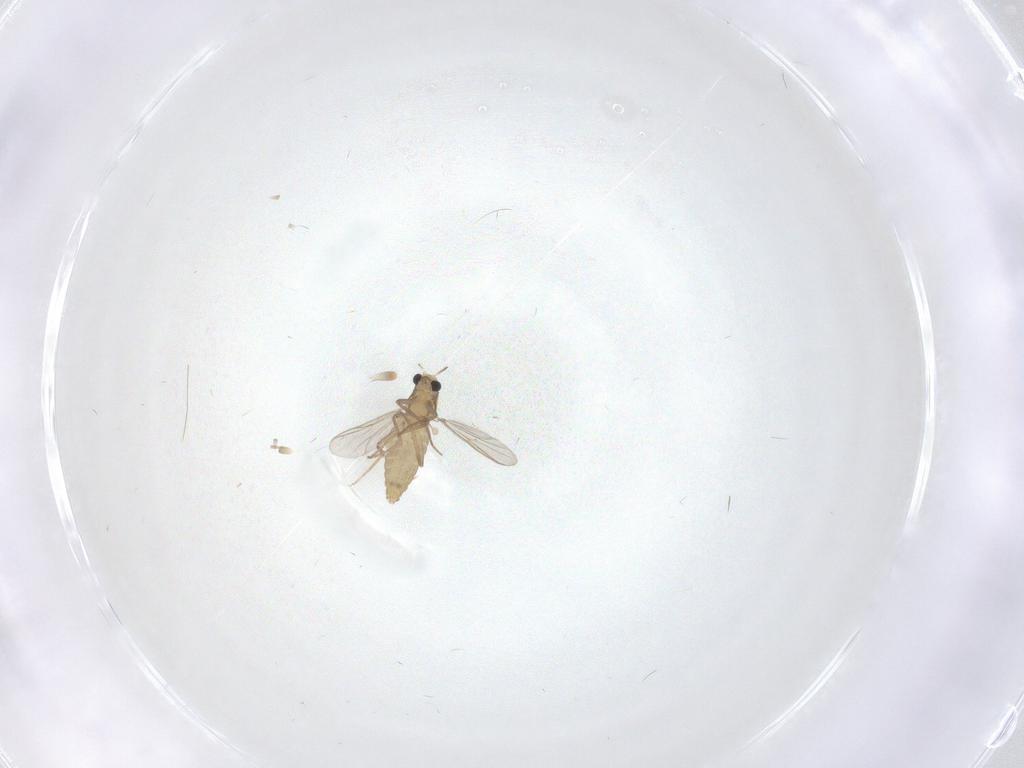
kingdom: Animalia
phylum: Arthropoda
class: Insecta
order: Diptera
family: Chironomidae
